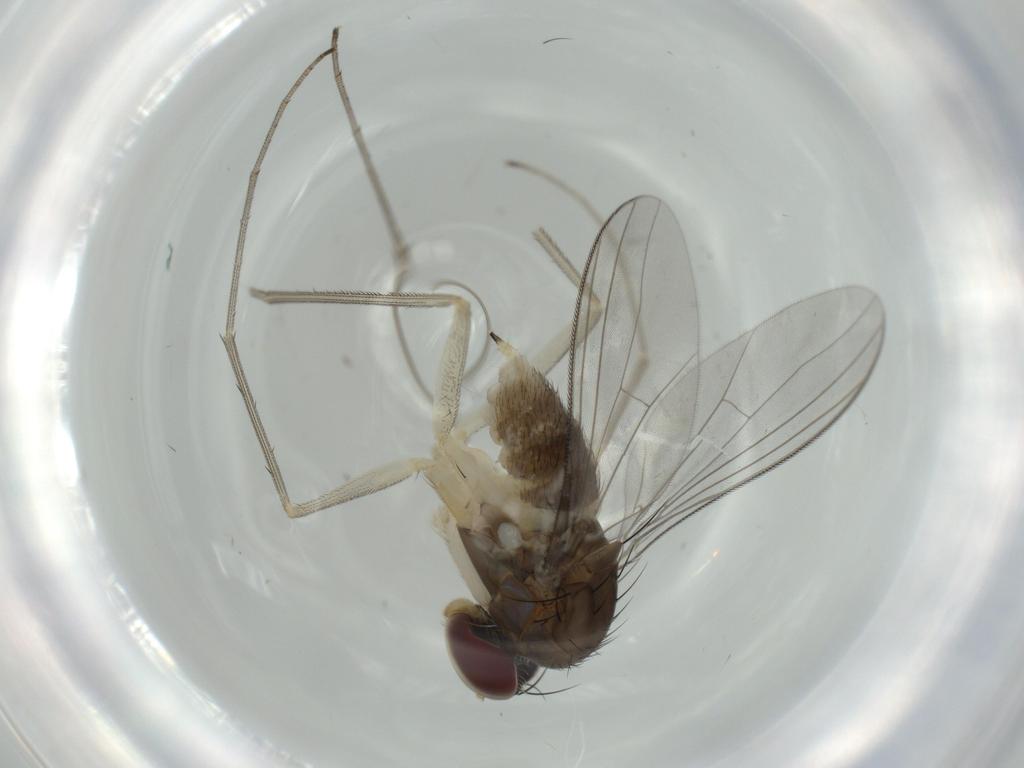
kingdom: Animalia
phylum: Arthropoda
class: Insecta
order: Diptera
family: Dolichopodidae
